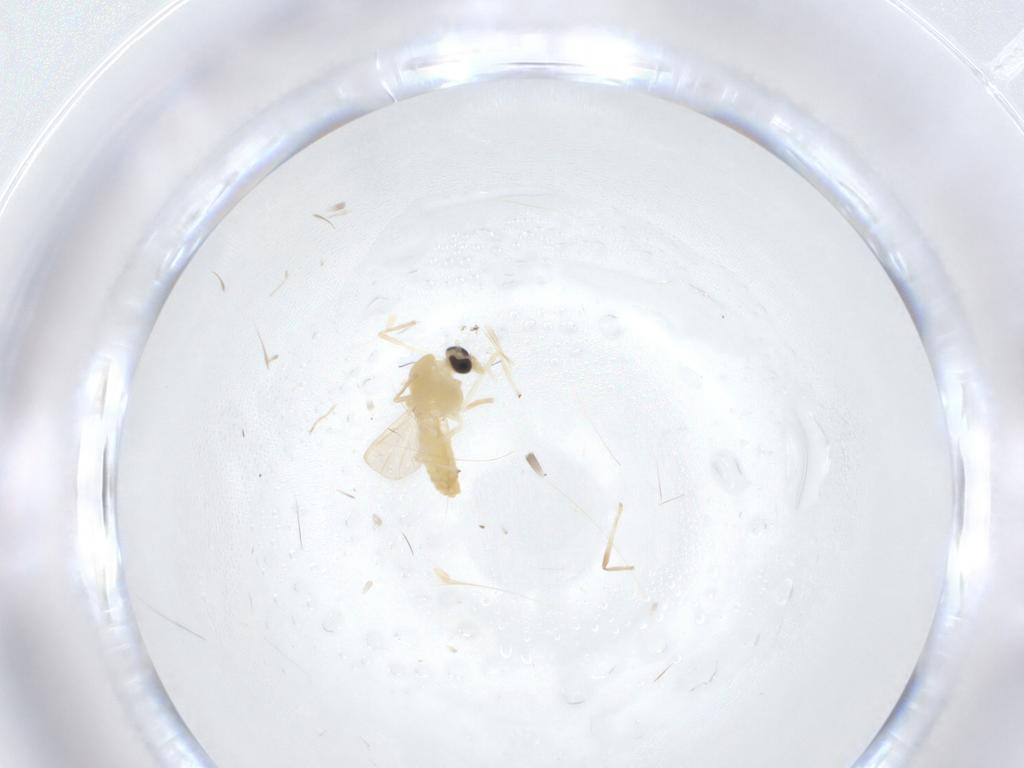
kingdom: Animalia
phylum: Arthropoda
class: Insecta
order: Diptera
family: Chironomidae
